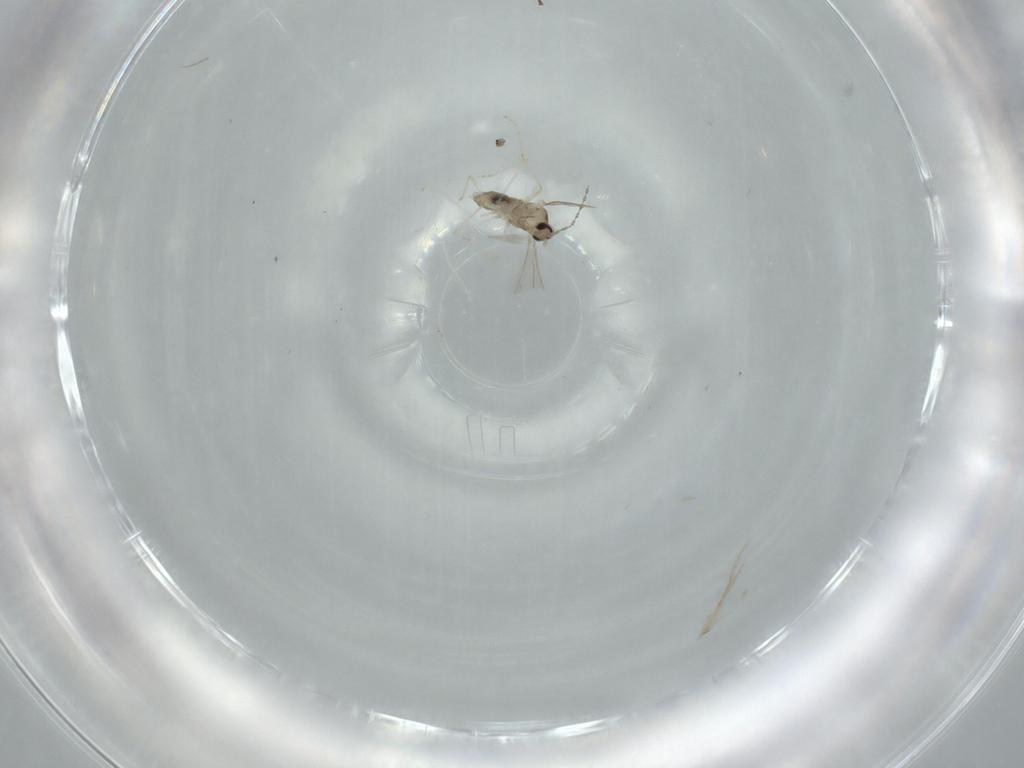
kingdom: Animalia
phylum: Arthropoda
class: Insecta
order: Diptera
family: Cecidomyiidae
